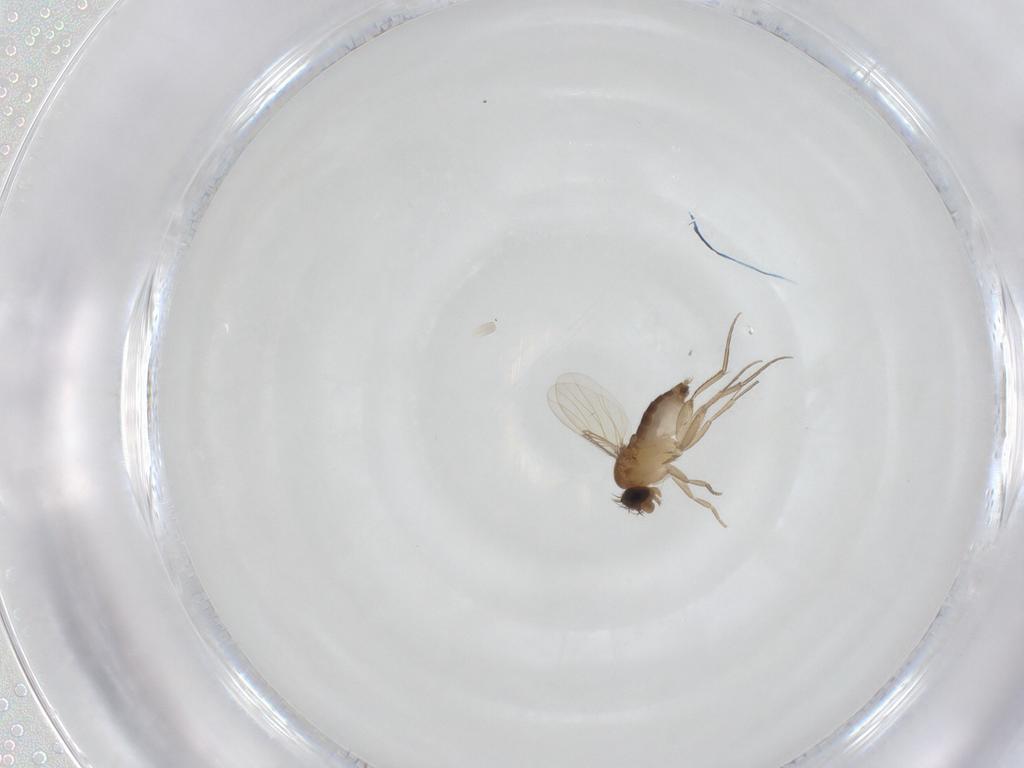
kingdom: Animalia
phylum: Arthropoda
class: Insecta
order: Diptera
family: Phoridae
